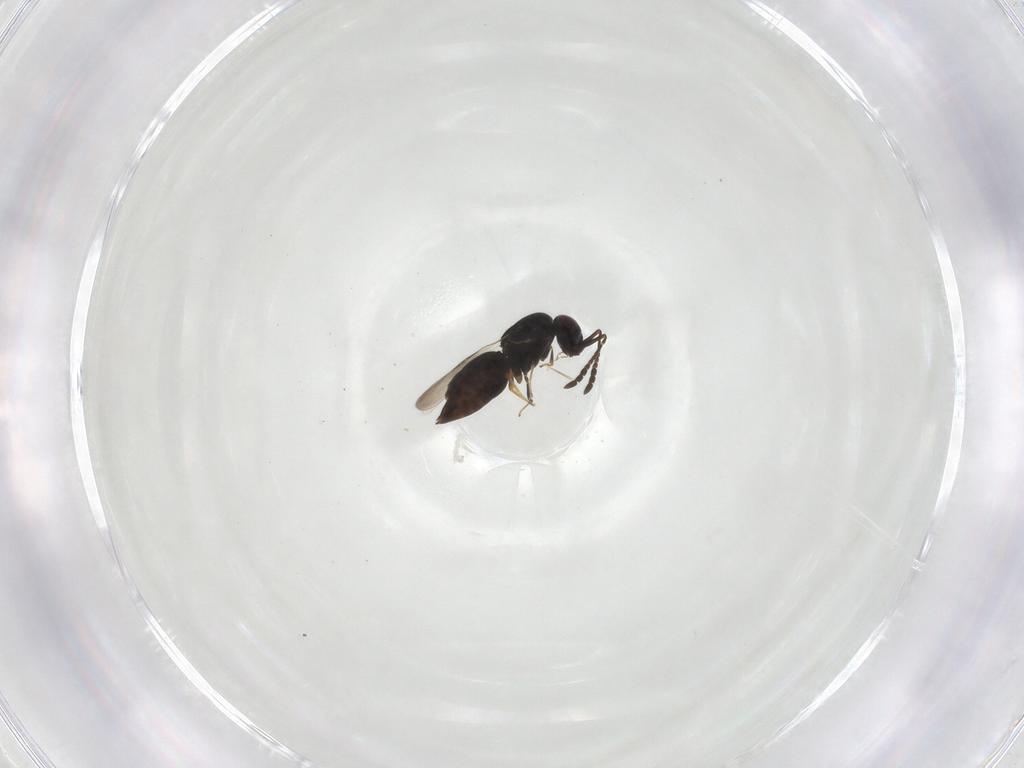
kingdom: Animalia
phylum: Arthropoda
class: Insecta
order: Hymenoptera
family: Ceraphronidae
